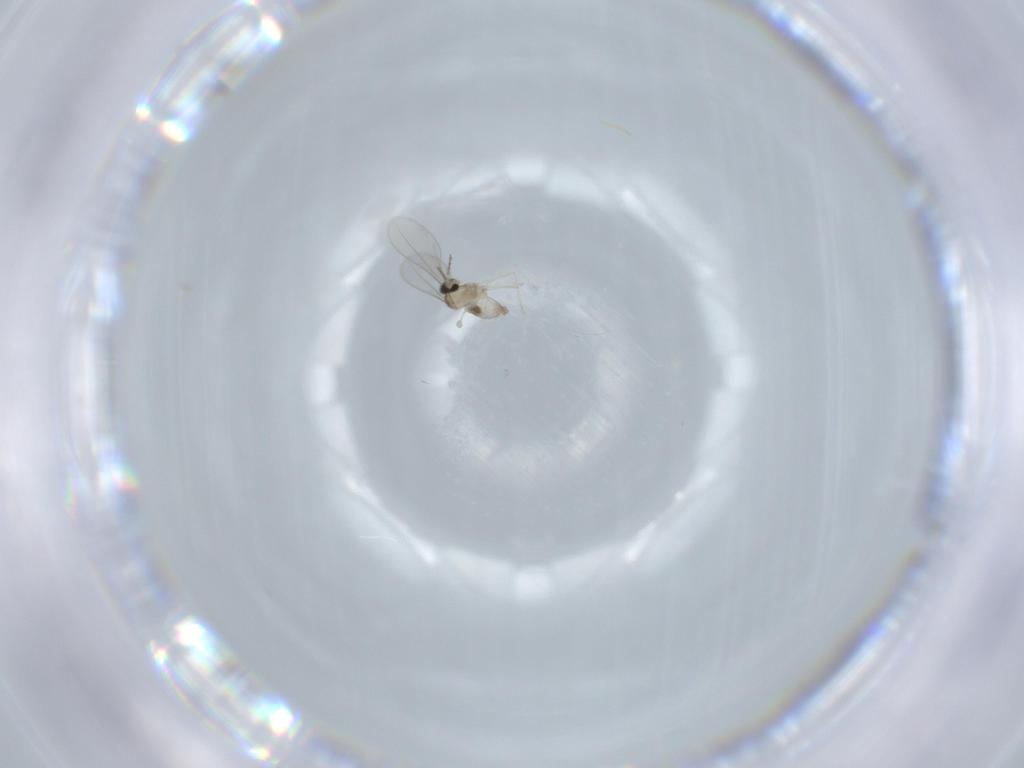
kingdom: Animalia
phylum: Arthropoda
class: Insecta
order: Diptera
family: Cecidomyiidae
